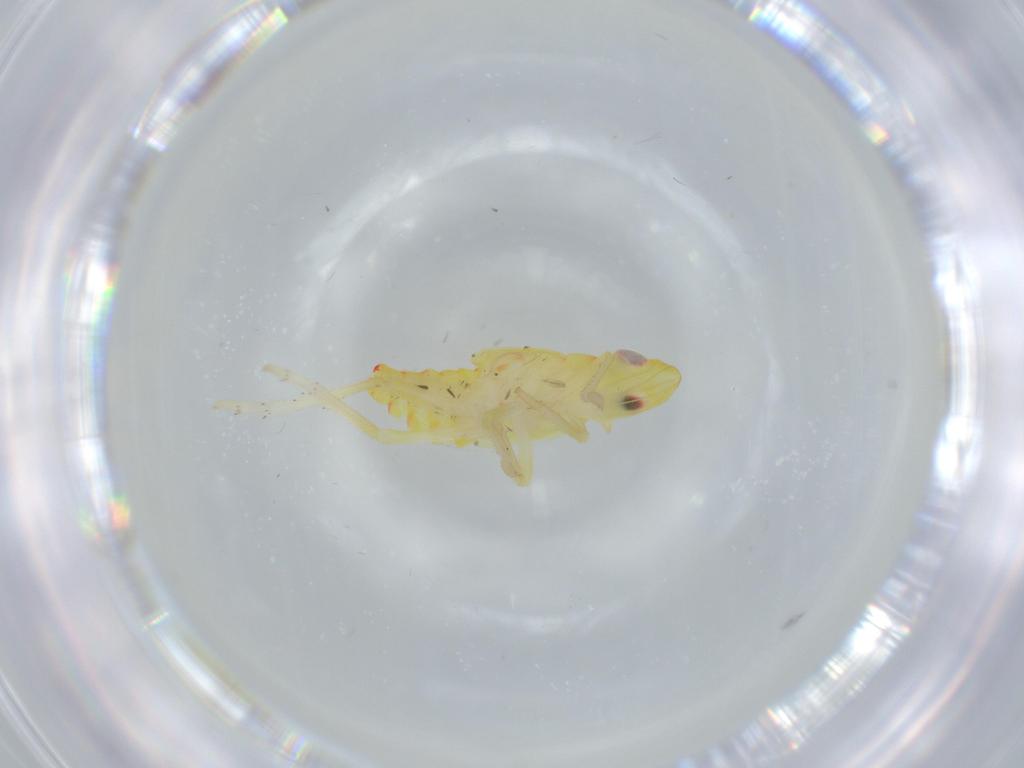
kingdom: Animalia
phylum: Arthropoda
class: Insecta
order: Hemiptera
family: Tropiduchidae
